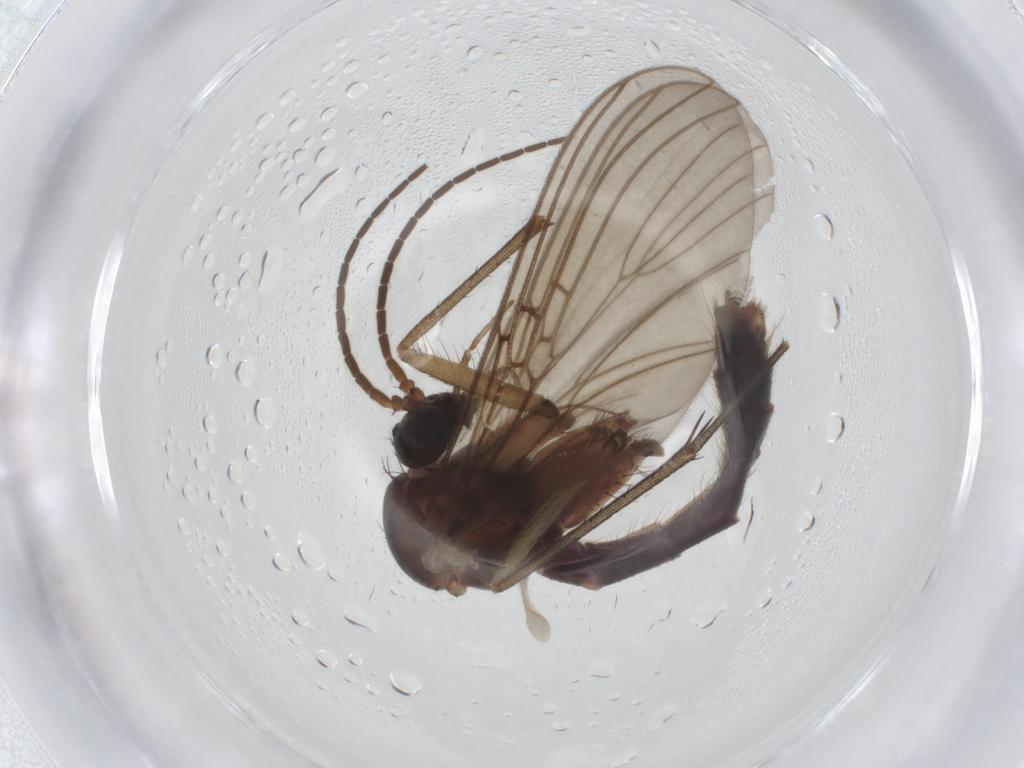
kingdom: Animalia
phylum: Arthropoda
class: Insecta
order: Diptera
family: Mycetophilidae
